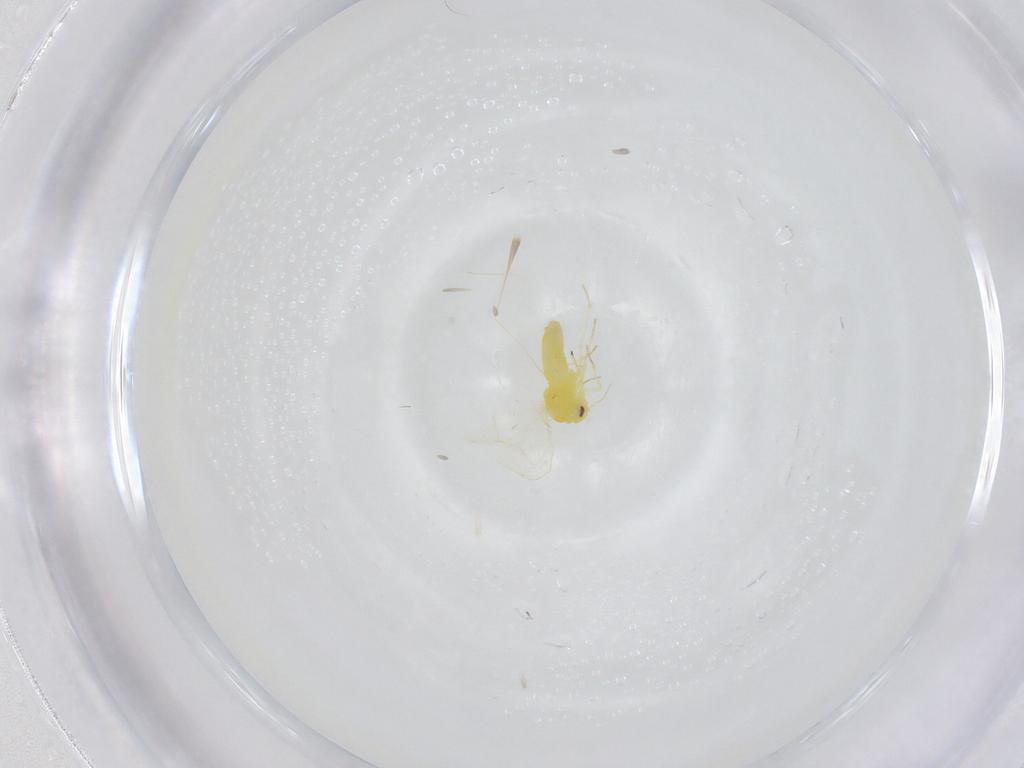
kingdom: Animalia
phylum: Arthropoda
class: Insecta
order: Hemiptera
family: Aleyrodidae
